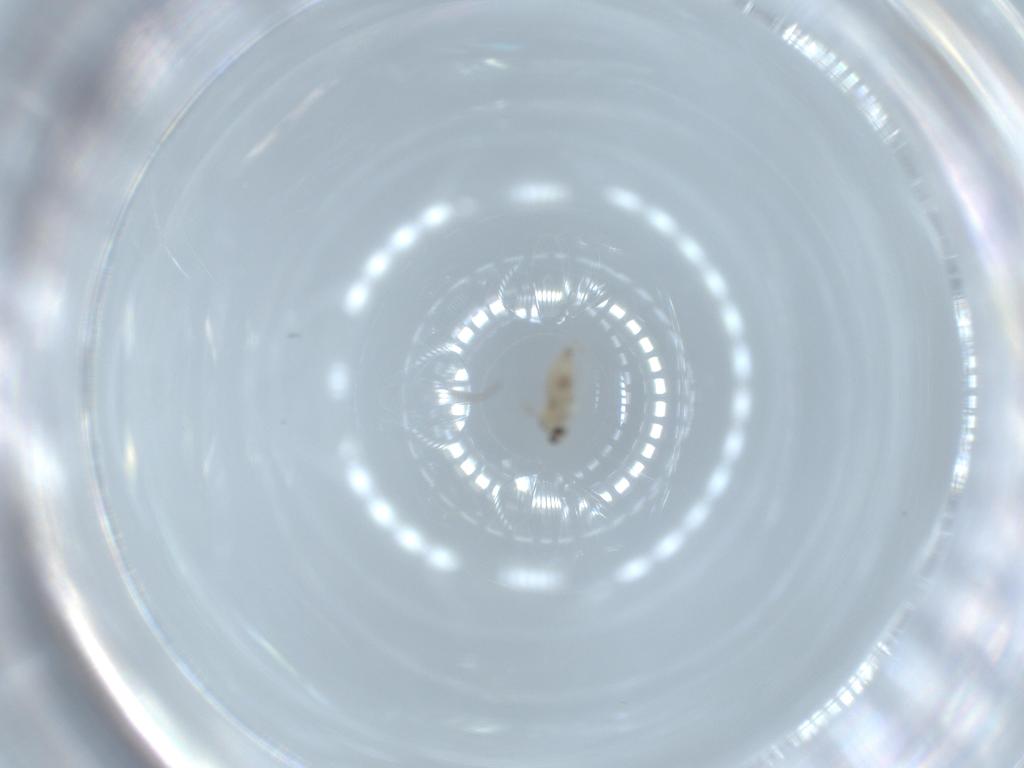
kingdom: Animalia
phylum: Arthropoda
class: Insecta
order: Diptera
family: Cecidomyiidae
